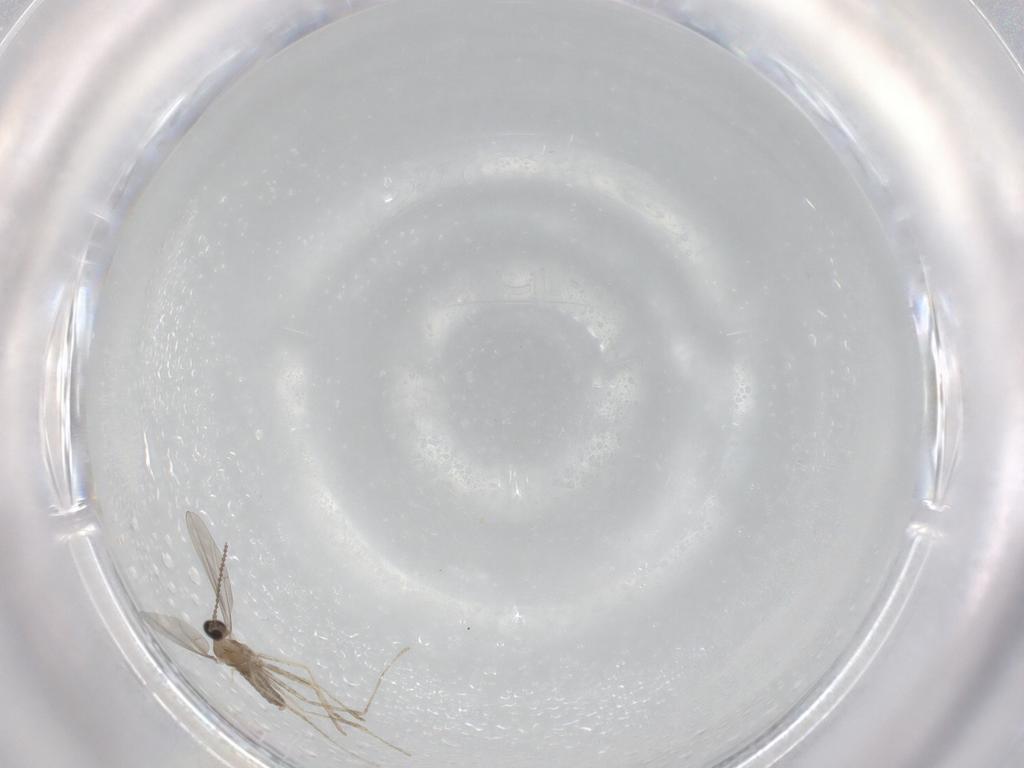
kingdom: Animalia
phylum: Arthropoda
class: Insecta
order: Diptera
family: Cecidomyiidae
